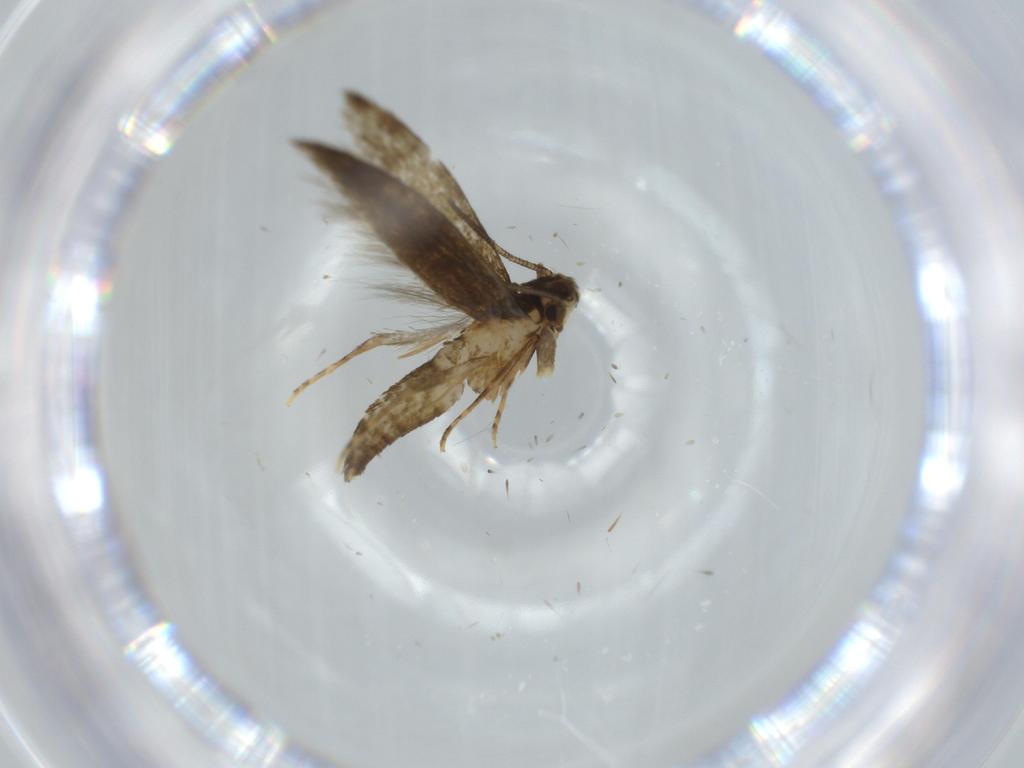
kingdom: Animalia
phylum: Arthropoda
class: Insecta
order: Lepidoptera
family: Tineidae
